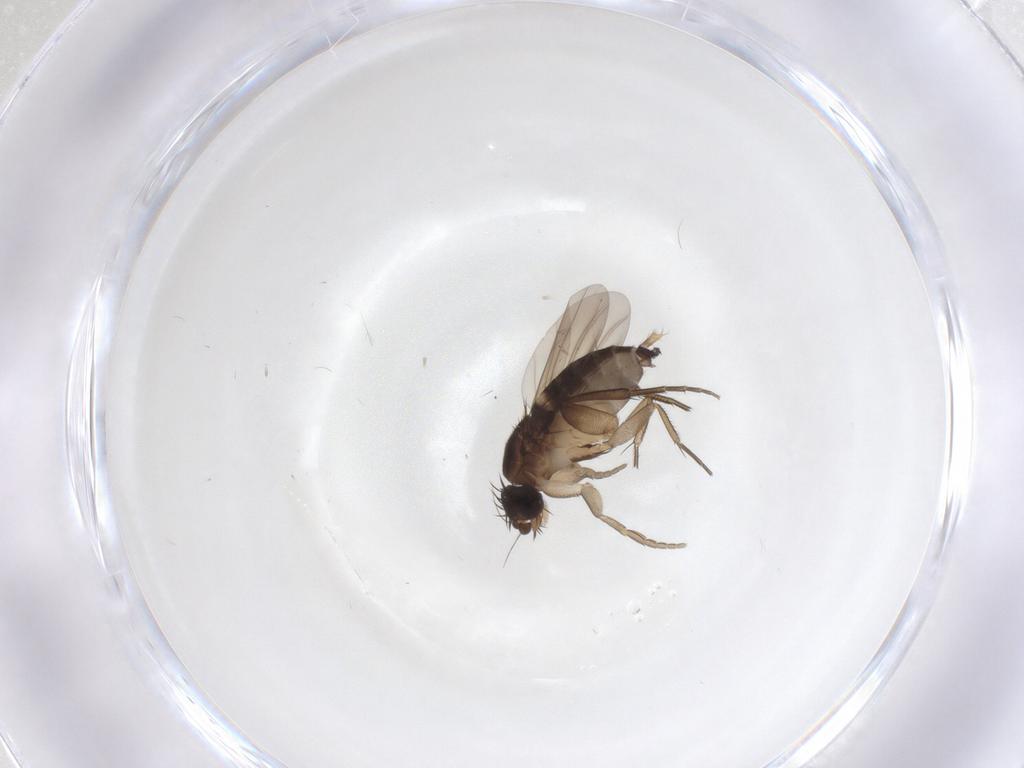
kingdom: Animalia
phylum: Arthropoda
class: Insecta
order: Diptera
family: Phoridae
